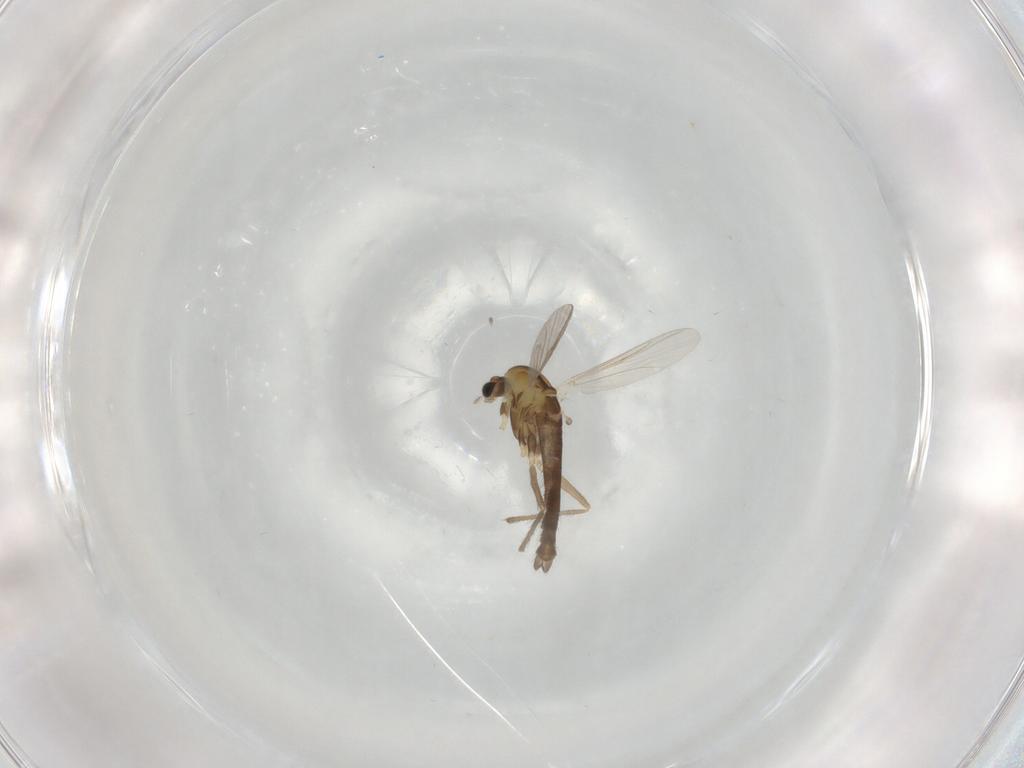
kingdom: Animalia
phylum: Arthropoda
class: Insecta
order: Diptera
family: Chironomidae
